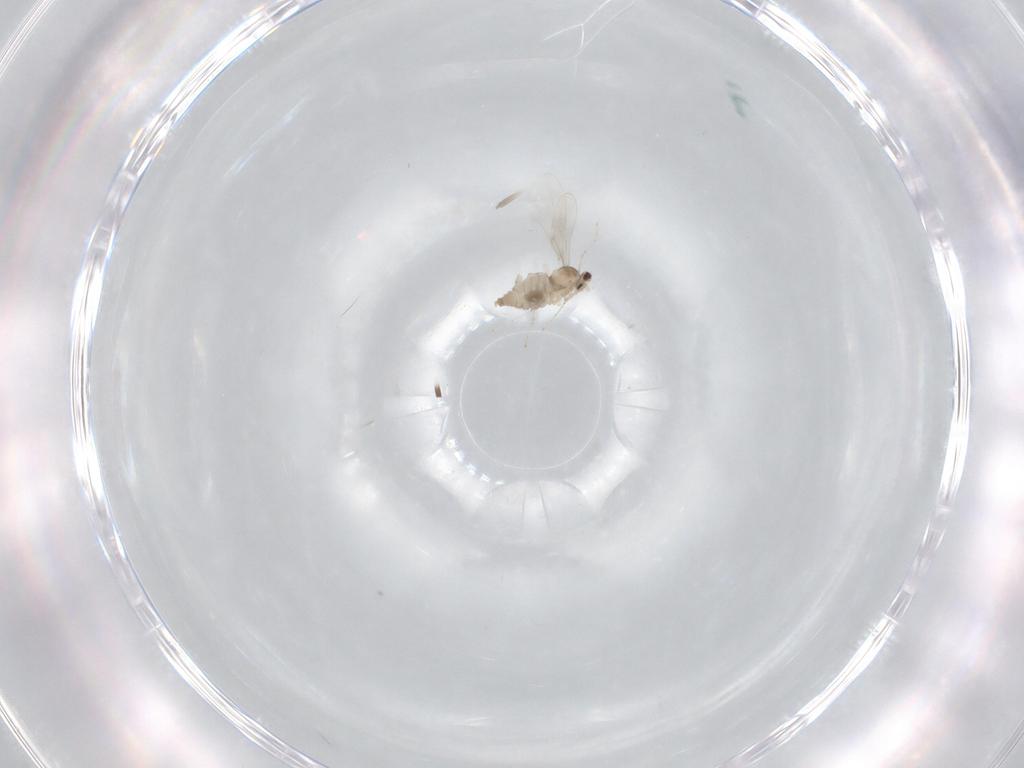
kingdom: Animalia
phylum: Arthropoda
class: Insecta
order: Diptera
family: Cecidomyiidae
